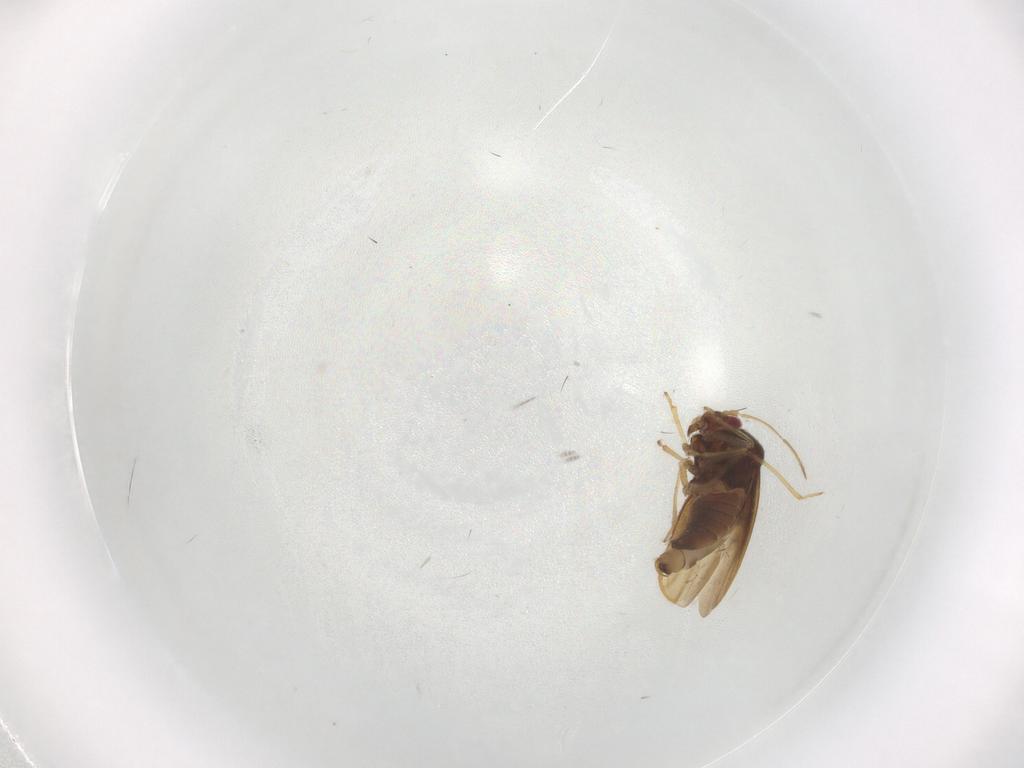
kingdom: Animalia
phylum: Arthropoda
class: Insecta
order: Hemiptera
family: Schizopteridae
